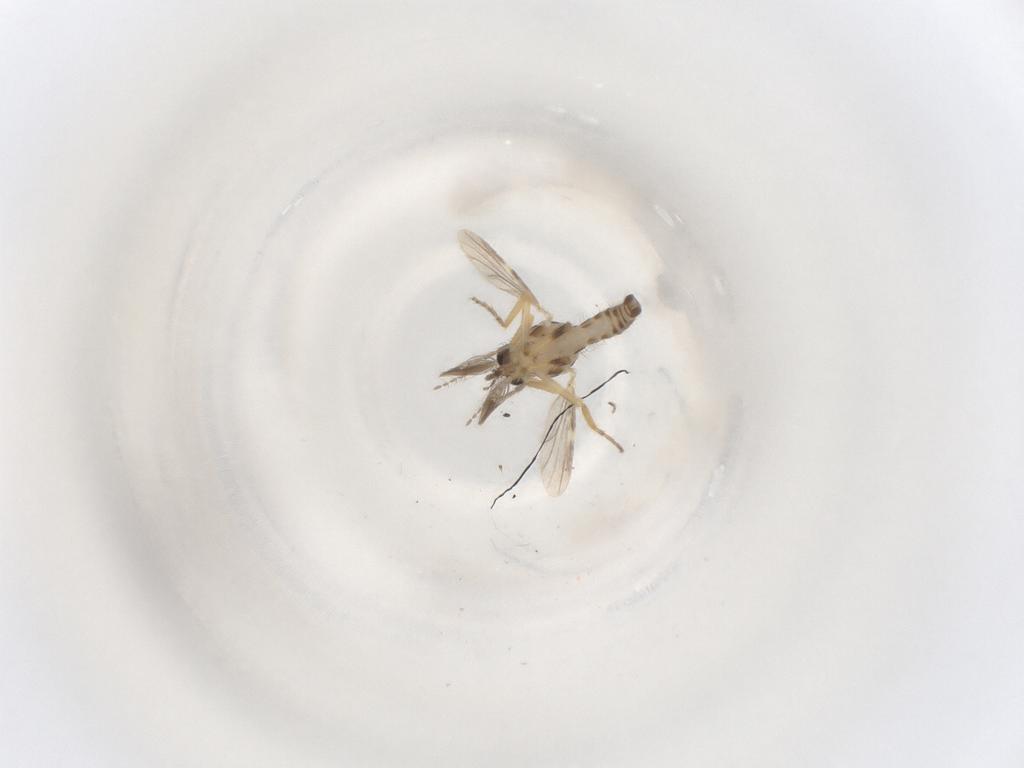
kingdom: Animalia
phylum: Arthropoda
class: Insecta
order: Diptera
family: Ceratopogonidae
